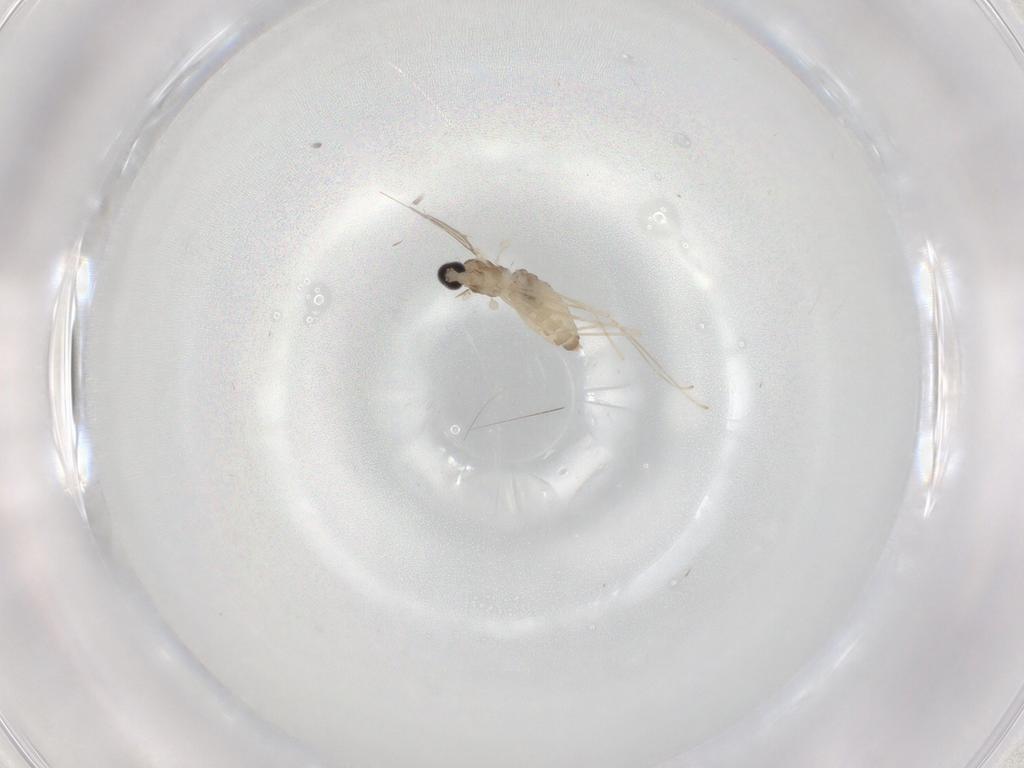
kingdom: Animalia
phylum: Arthropoda
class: Insecta
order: Diptera
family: Cecidomyiidae
